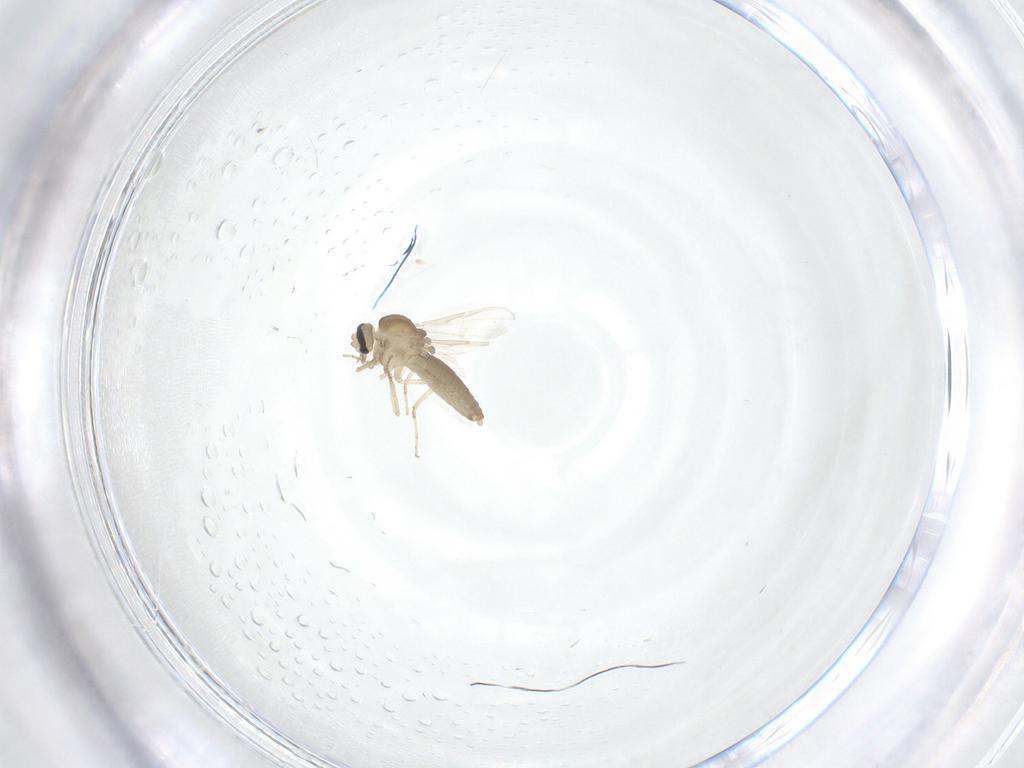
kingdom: Animalia
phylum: Arthropoda
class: Insecta
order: Diptera
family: Ceratopogonidae
